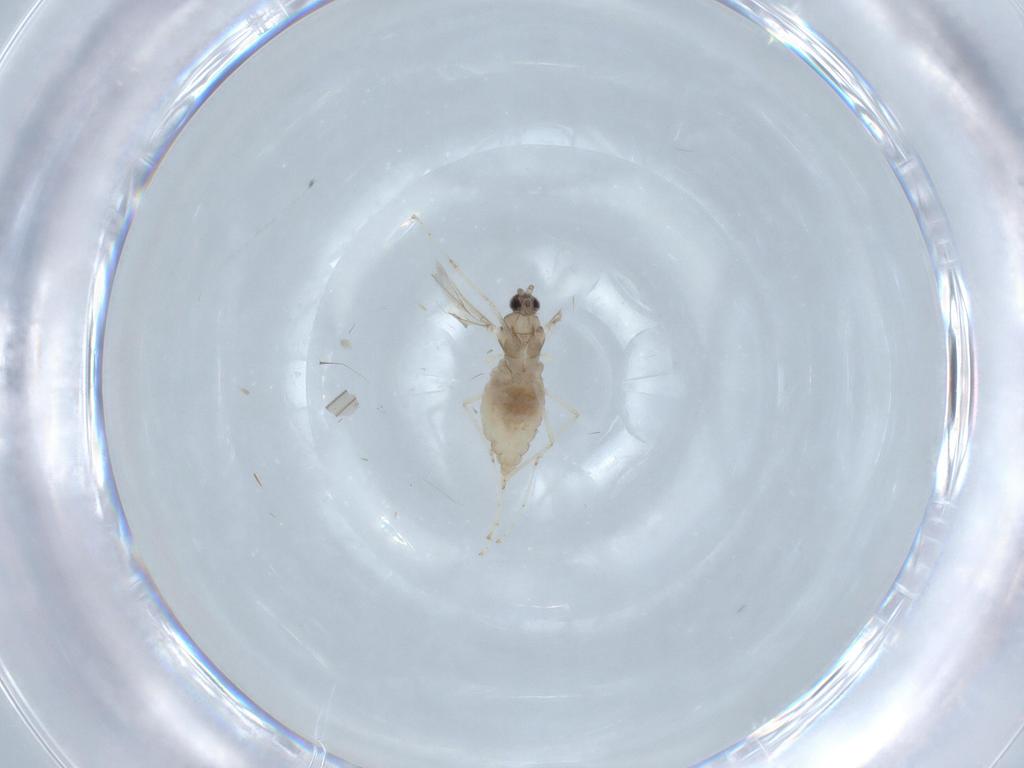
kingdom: Animalia
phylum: Arthropoda
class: Insecta
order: Diptera
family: Cecidomyiidae
